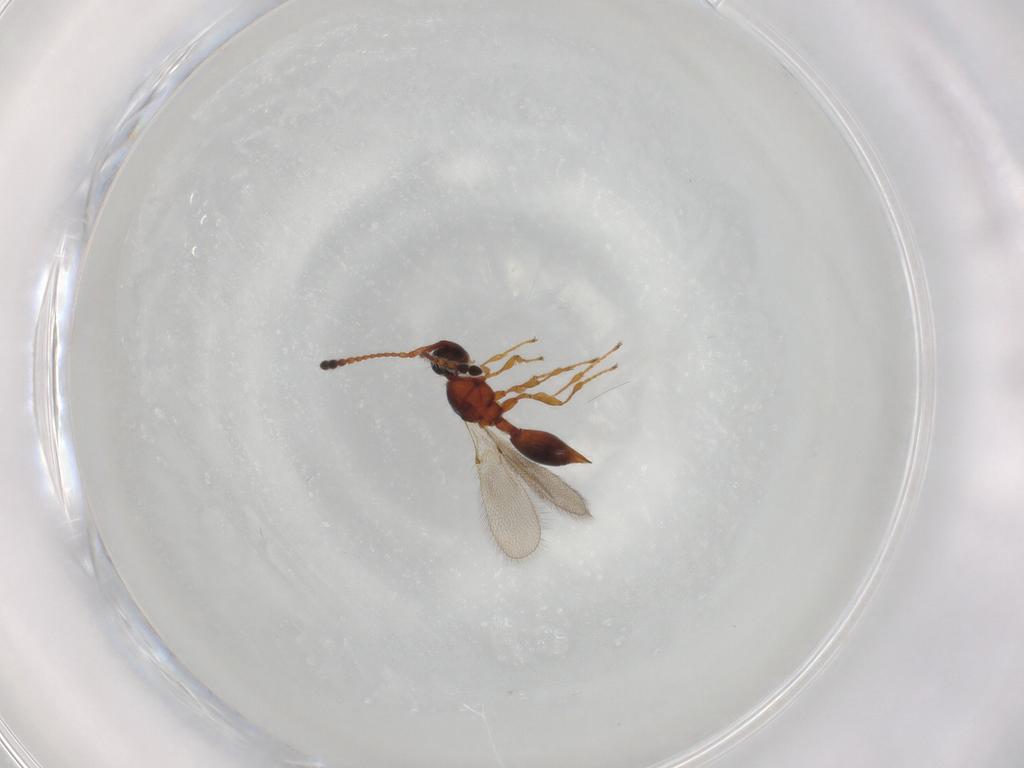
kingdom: Animalia
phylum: Arthropoda
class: Insecta
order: Hymenoptera
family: Diapriidae
